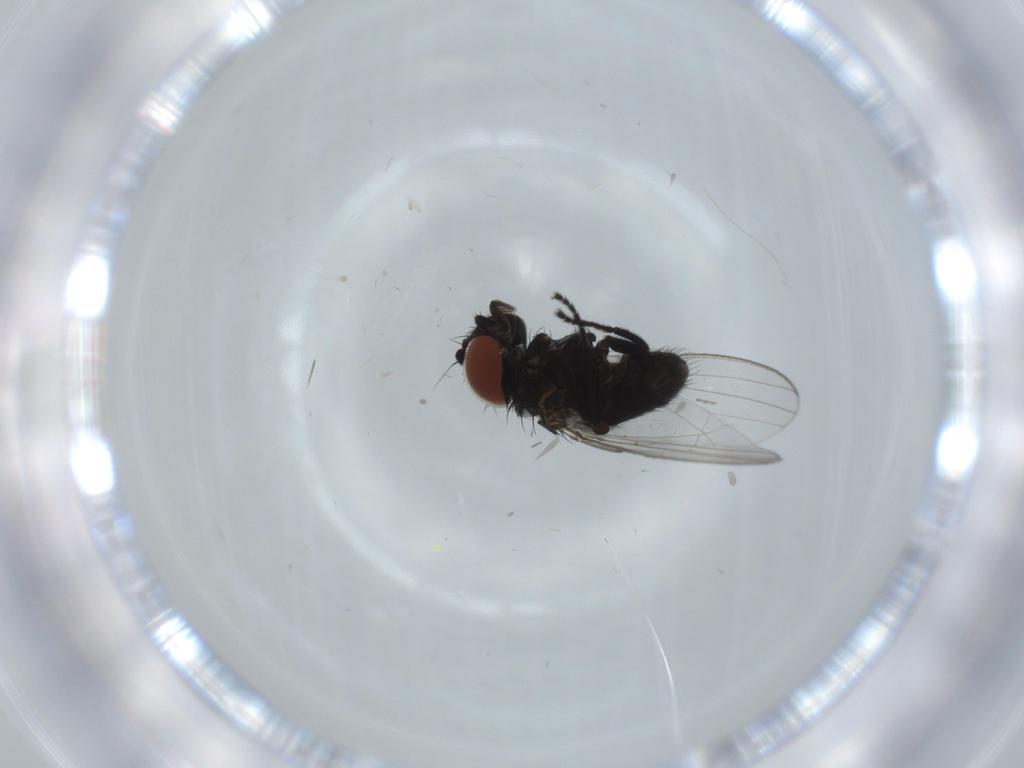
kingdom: Animalia
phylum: Arthropoda
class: Insecta
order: Diptera
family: Milichiidae
